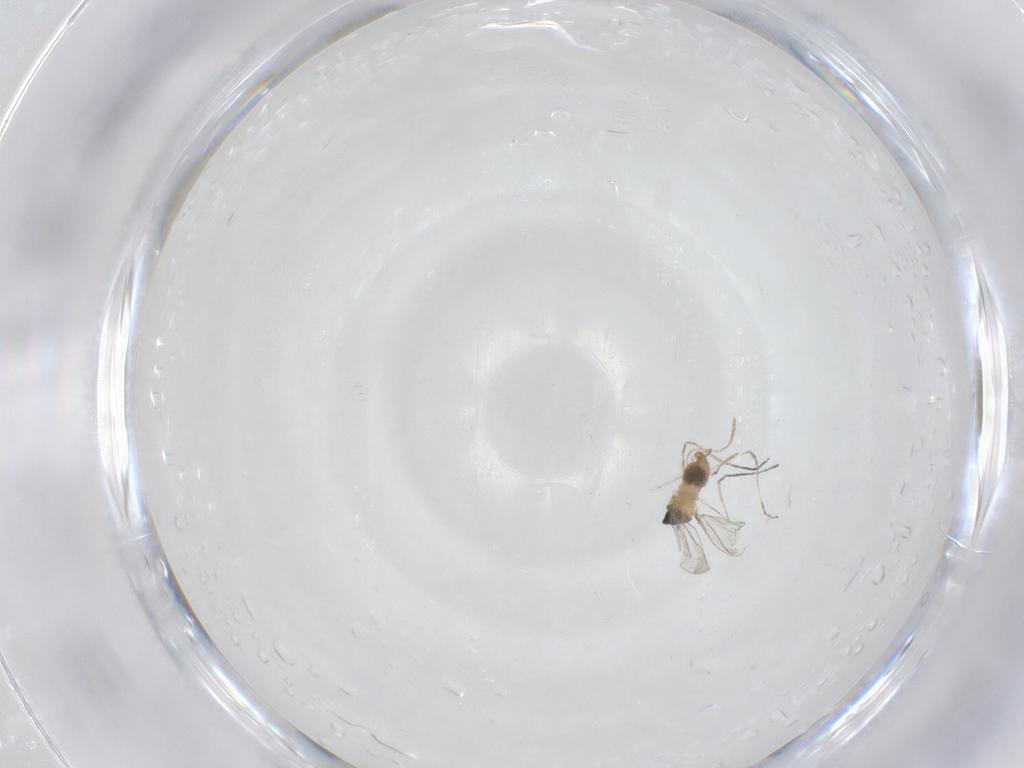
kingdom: Animalia
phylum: Arthropoda
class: Insecta
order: Diptera
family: Cecidomyiidae
